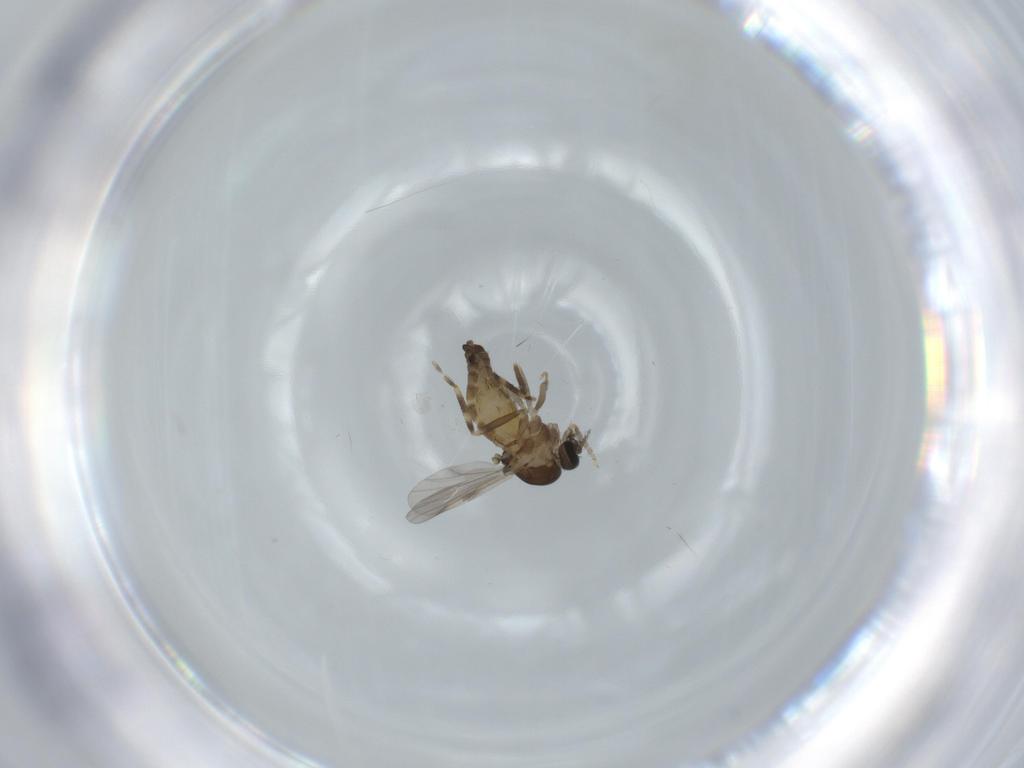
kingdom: Animalia
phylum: Arthropoda
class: Insecta
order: Diptera
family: Ceratopogonidae
